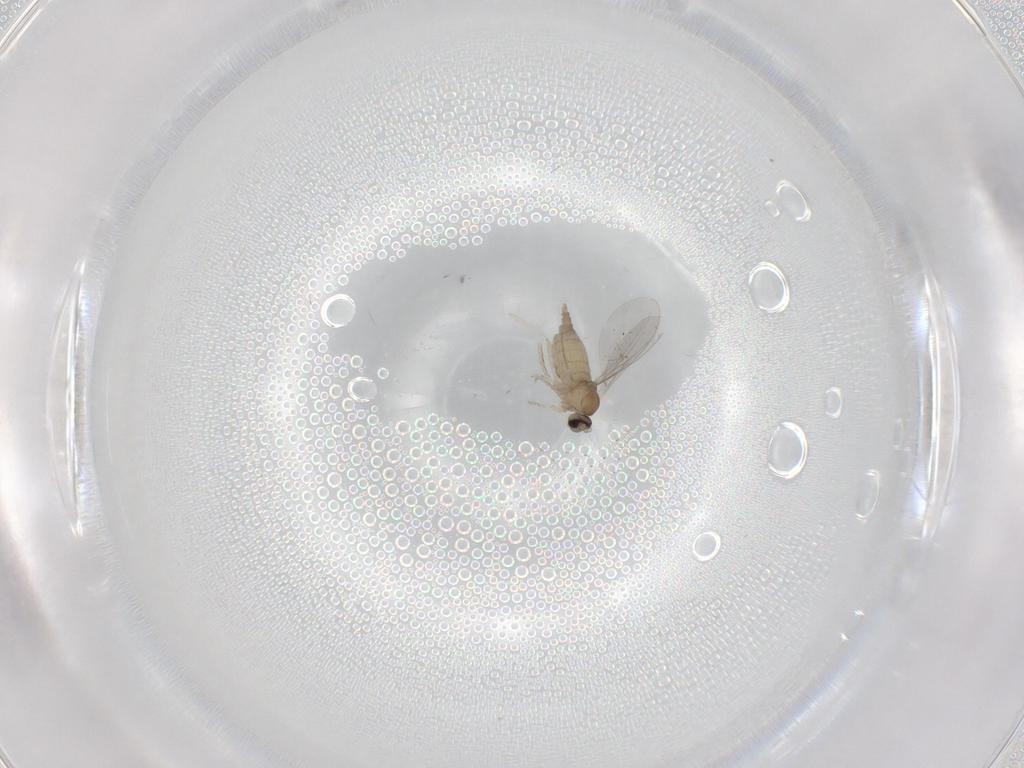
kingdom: Animalia
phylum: Arthropoda
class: Insecta
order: Diptera
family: Cecidomyiidae
